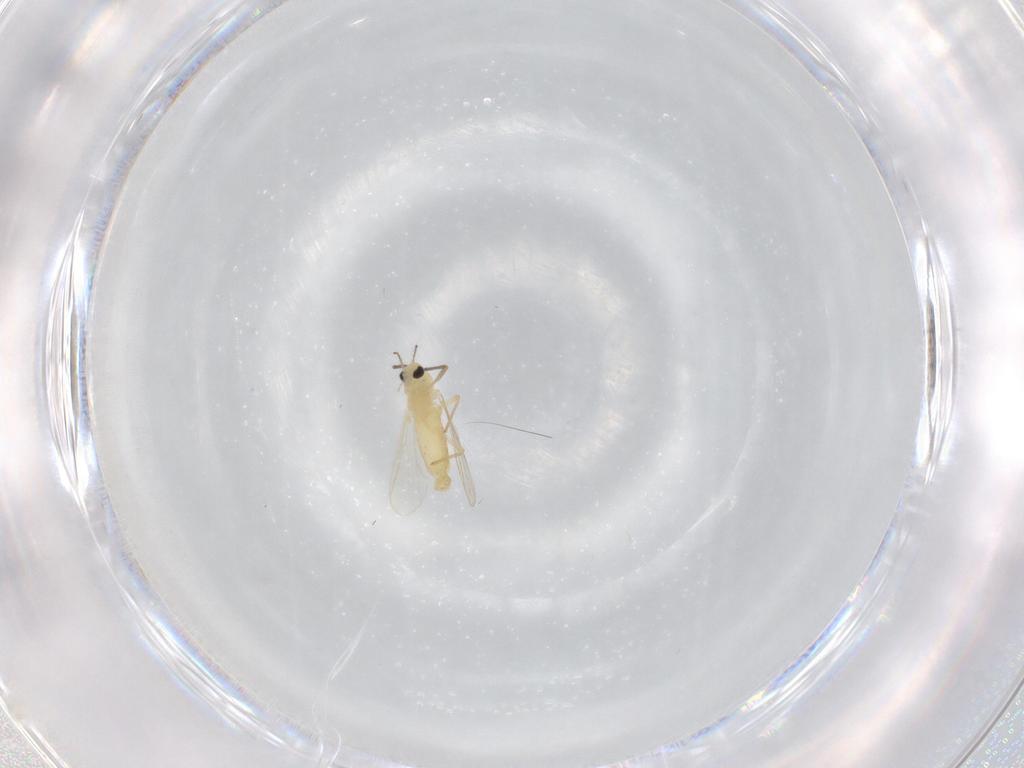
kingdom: Animalia
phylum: Arthropoda
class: Insecta
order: Diptera
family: Chironomidae
